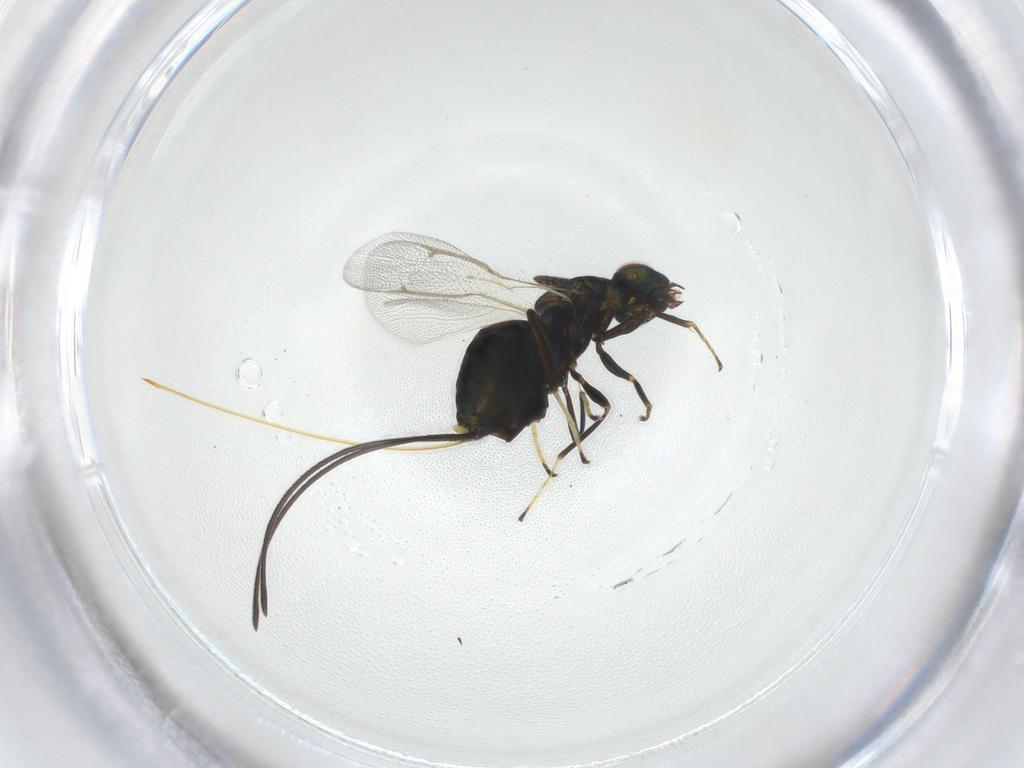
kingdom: Animalia
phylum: Arthropoda
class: Insecta
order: Hymenoptera
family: Torymidae
